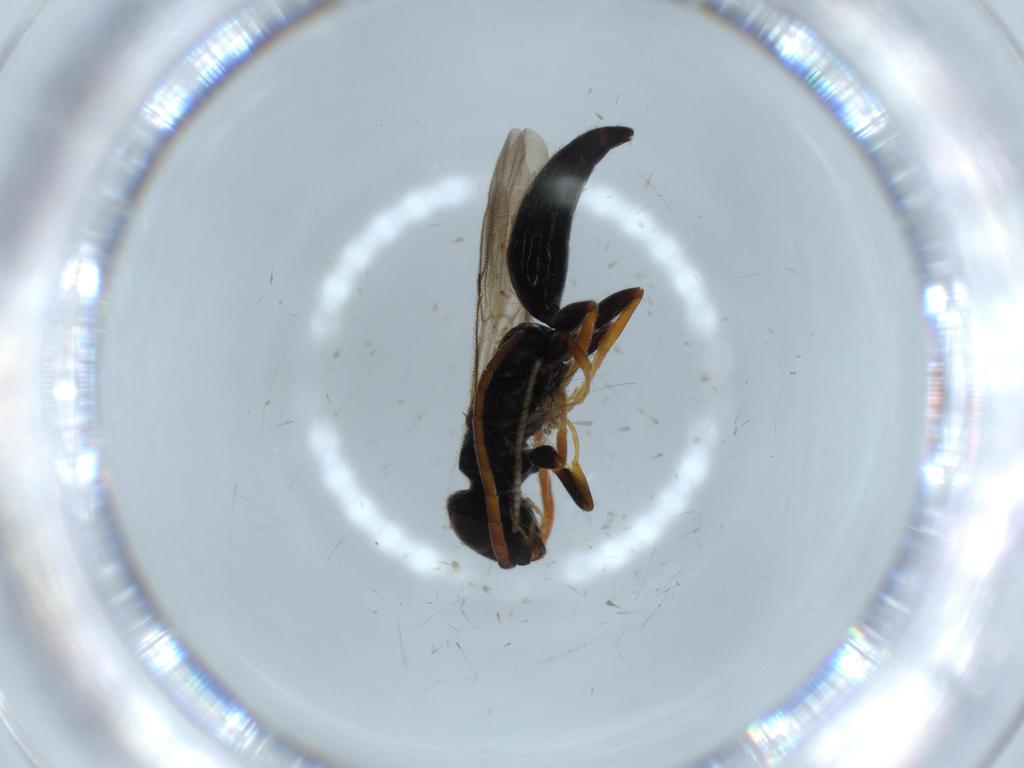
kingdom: Animalia
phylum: Arthropoda
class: Insecta
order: Hymenoptera
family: Bethylidae
